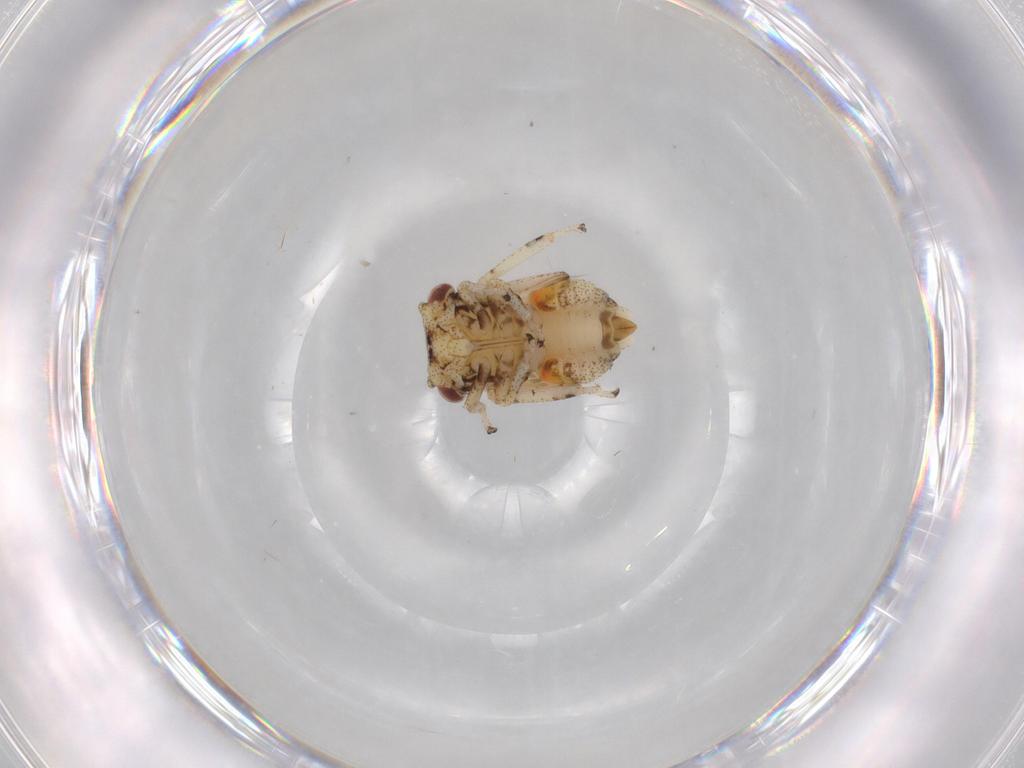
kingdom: Animalia
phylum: Arthropoda
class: Insecta
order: Hemiptera
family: Cicadellidae
